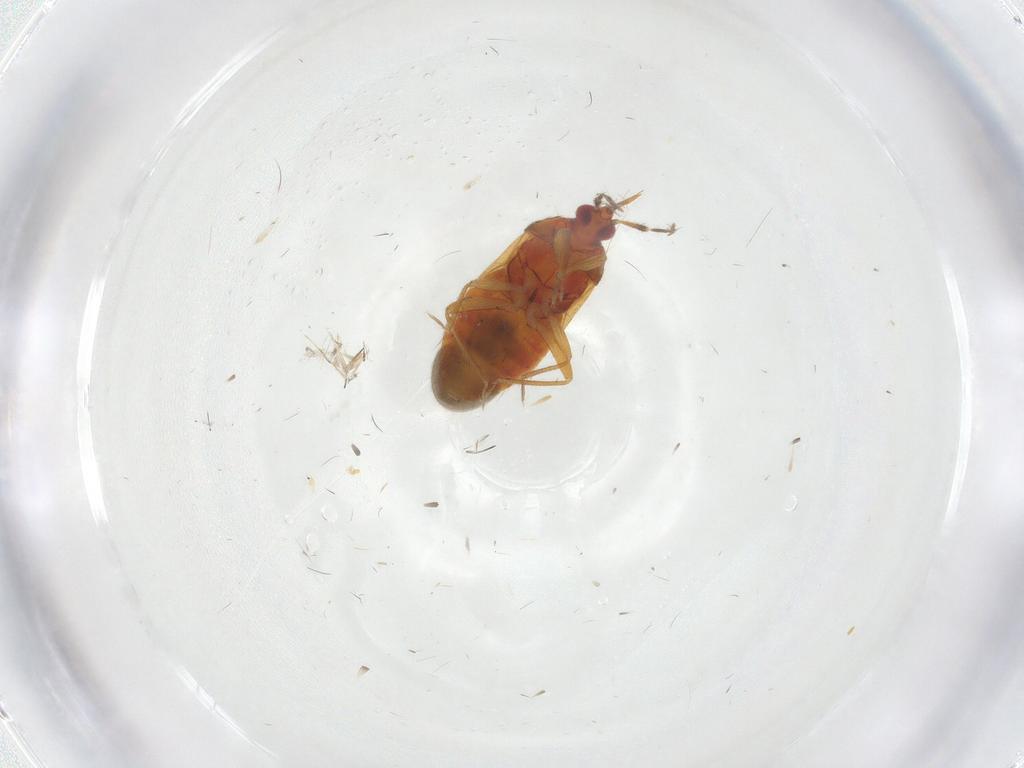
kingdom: Animalia
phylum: Arthropoda
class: Insecta
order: Hemiptera
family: Anthocoridae
